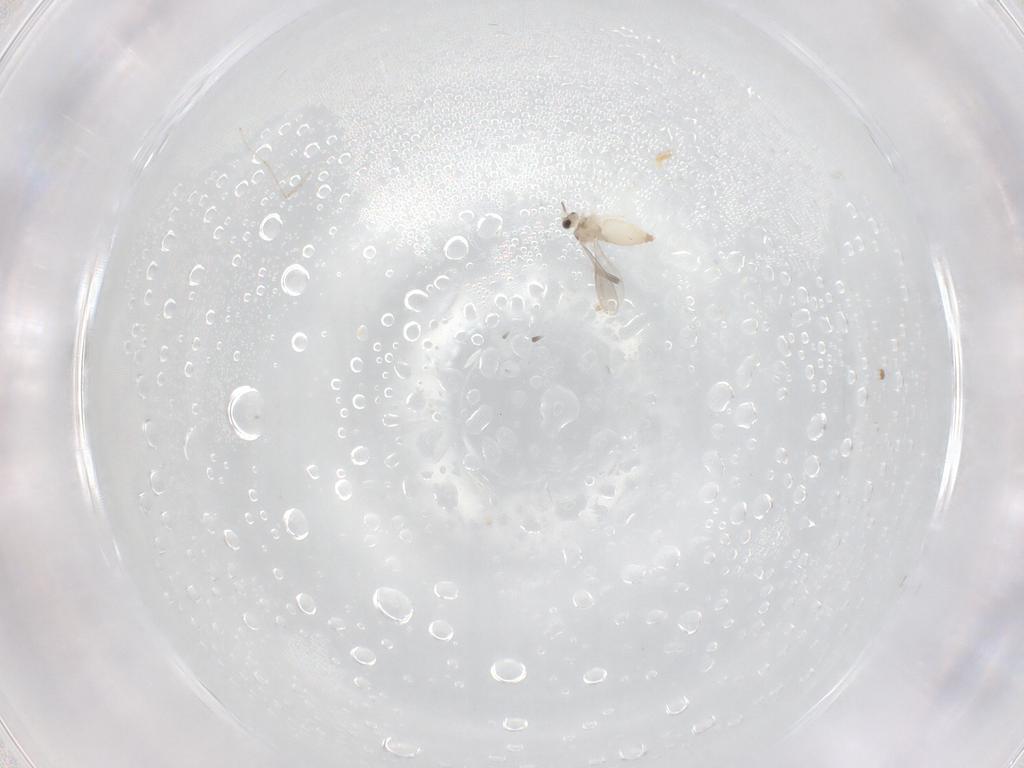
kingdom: Animalia
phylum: Arthropoda
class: Insecta
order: Diptera
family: Cecidomyiidae
